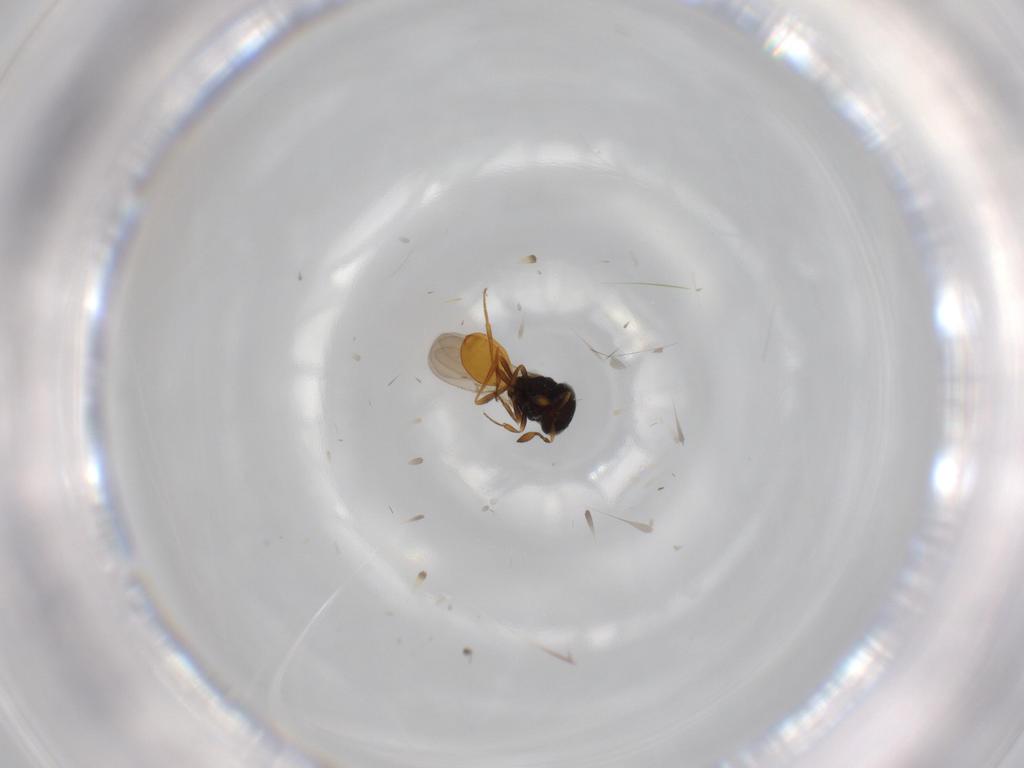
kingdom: Animalia
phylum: Arthropoda
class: Insecta
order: Hymenoptera
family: Scelionidae
